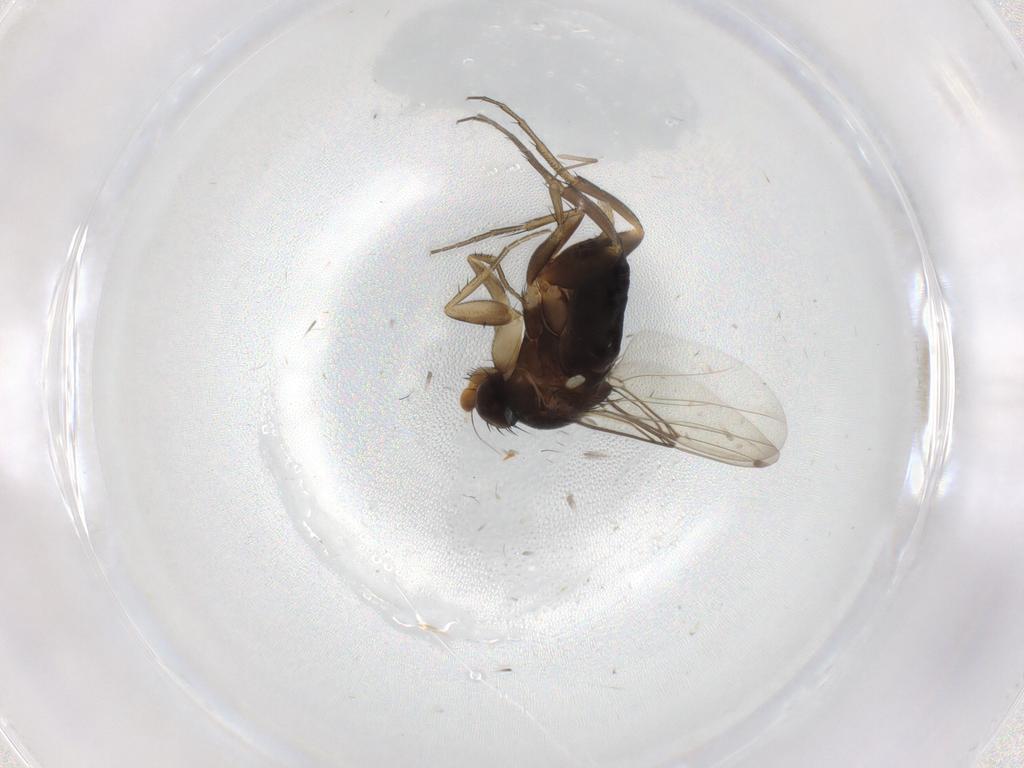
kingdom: Animalia
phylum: Arthropoda
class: Insecta
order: Diptera
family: Phoridae
